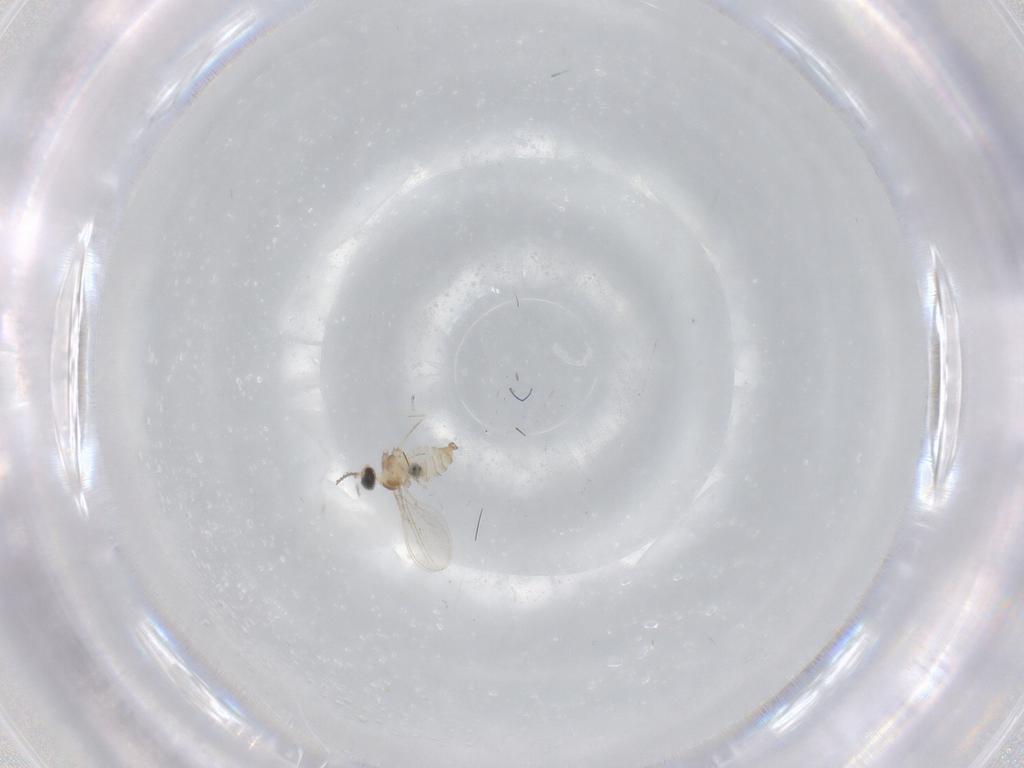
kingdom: Animalia
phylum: Arthropoda
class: Insecta
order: Diptera
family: Cecidomyiidae
